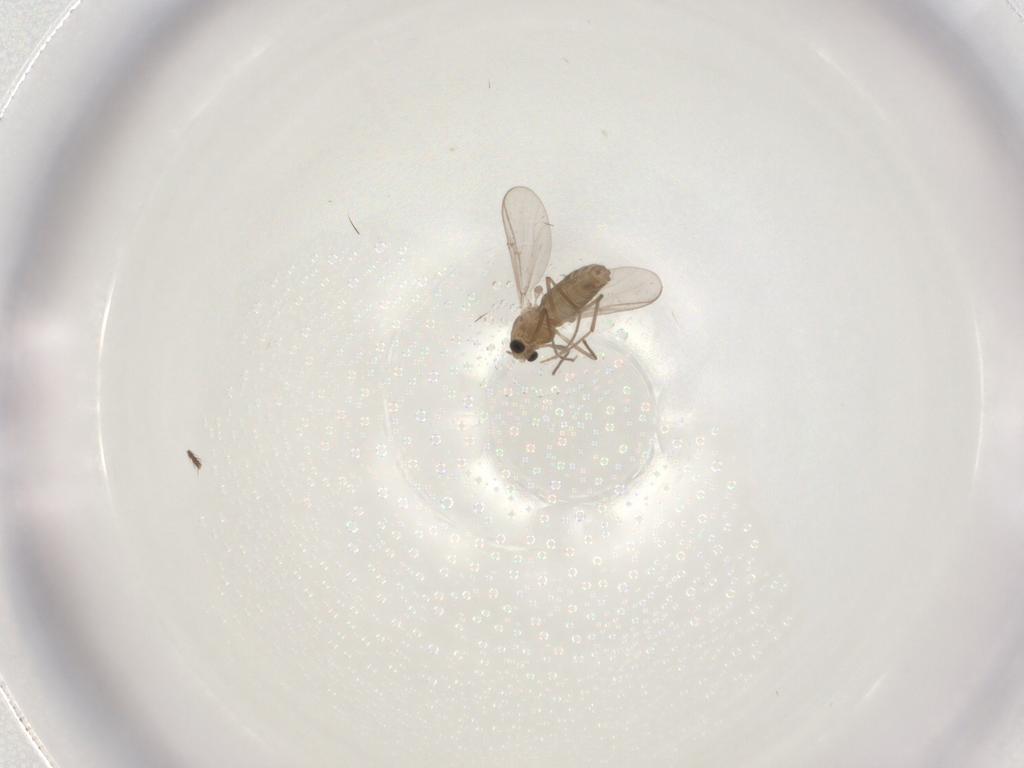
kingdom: Animalia
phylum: Arthropoda
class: Insecta
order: Diptera
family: Chironomidae
